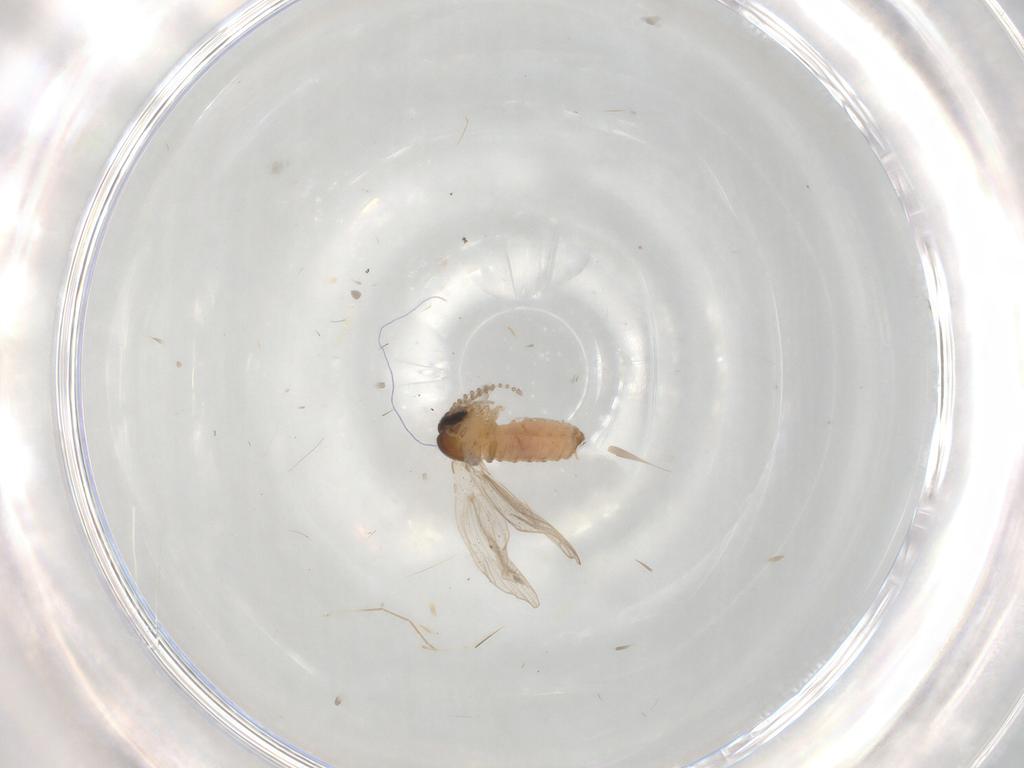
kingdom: Animalia
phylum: Arthropoda
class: Insecta
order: Diptera
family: Psychodidae
